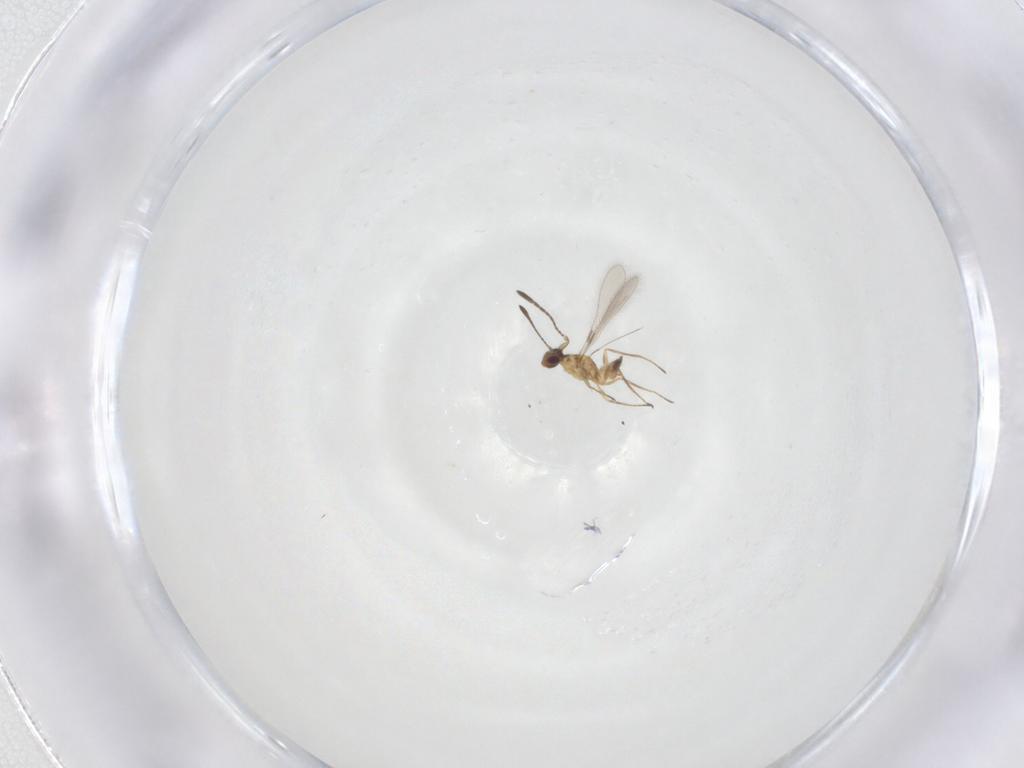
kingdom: Animalia
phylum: Arthropoda
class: Insecta
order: Hymenoptera
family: Mymaridae
